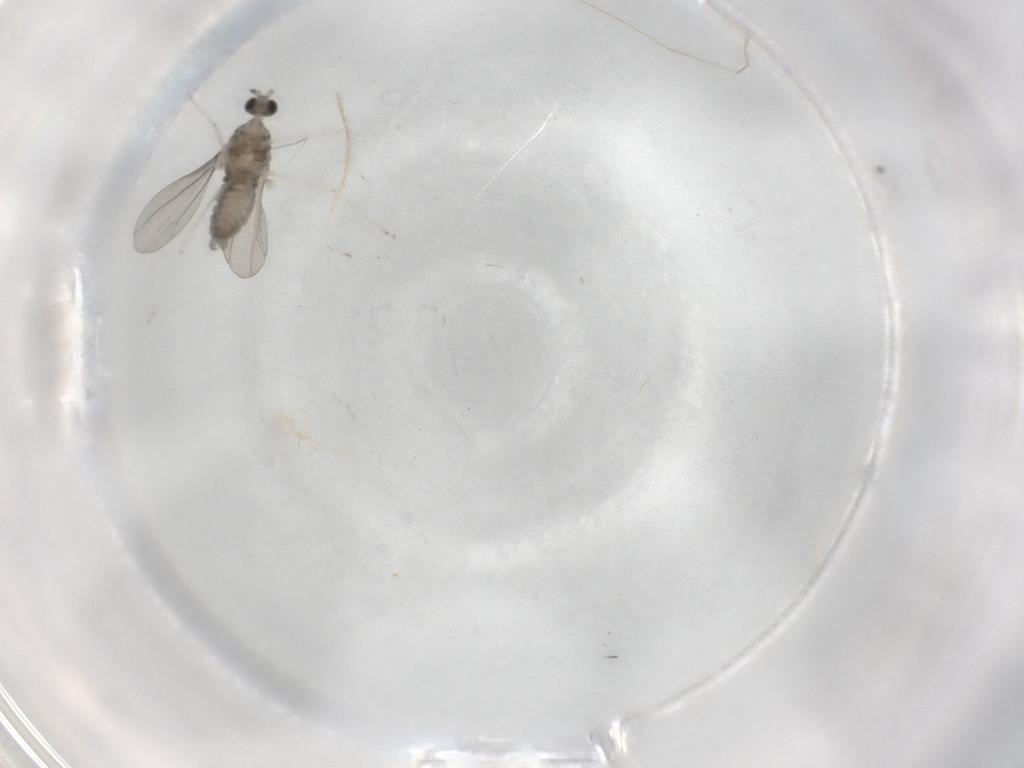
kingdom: Animalia
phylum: Arthropoda
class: Insecta
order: Diptera
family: Cecidomyiidae
